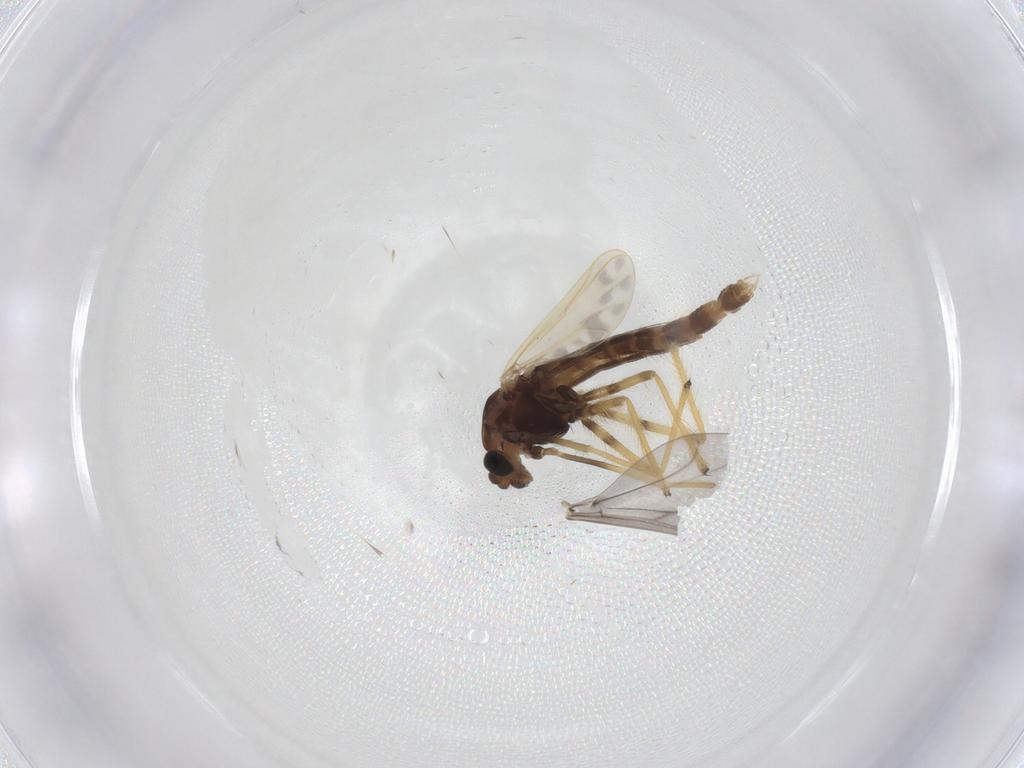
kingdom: Animalia
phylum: Arthropoda
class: Insecta
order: Diptera
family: Chironomidae
